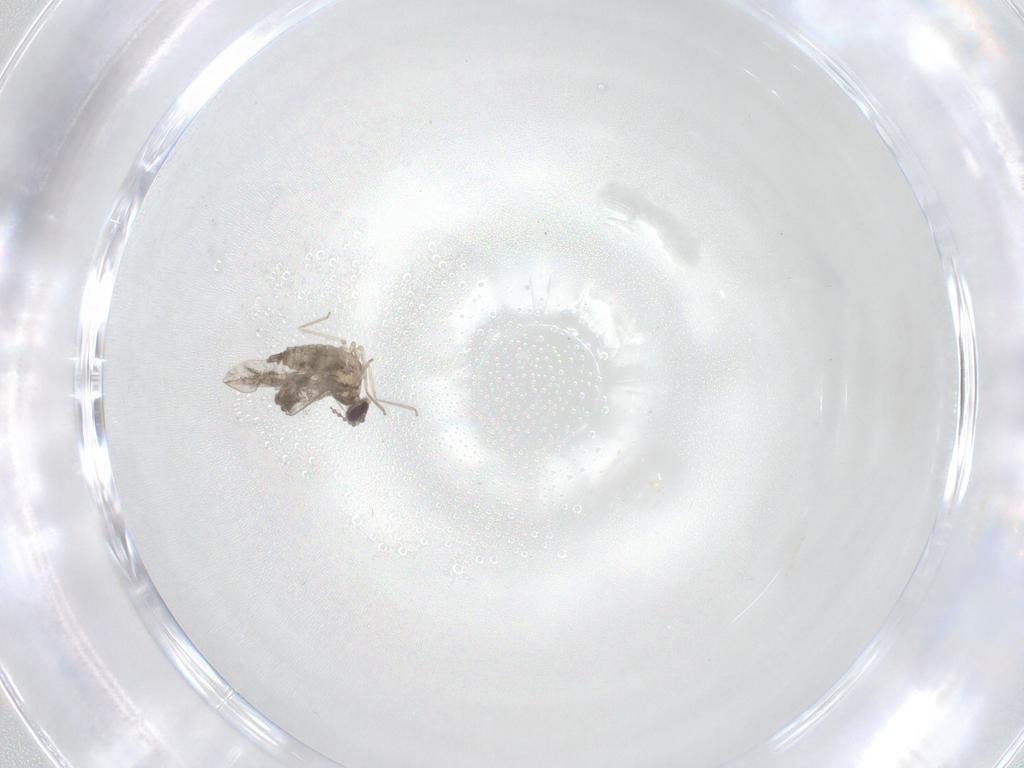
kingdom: Animalia
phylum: Arthropoda
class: Insecta
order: Diptera
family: Cecidomyiidae
